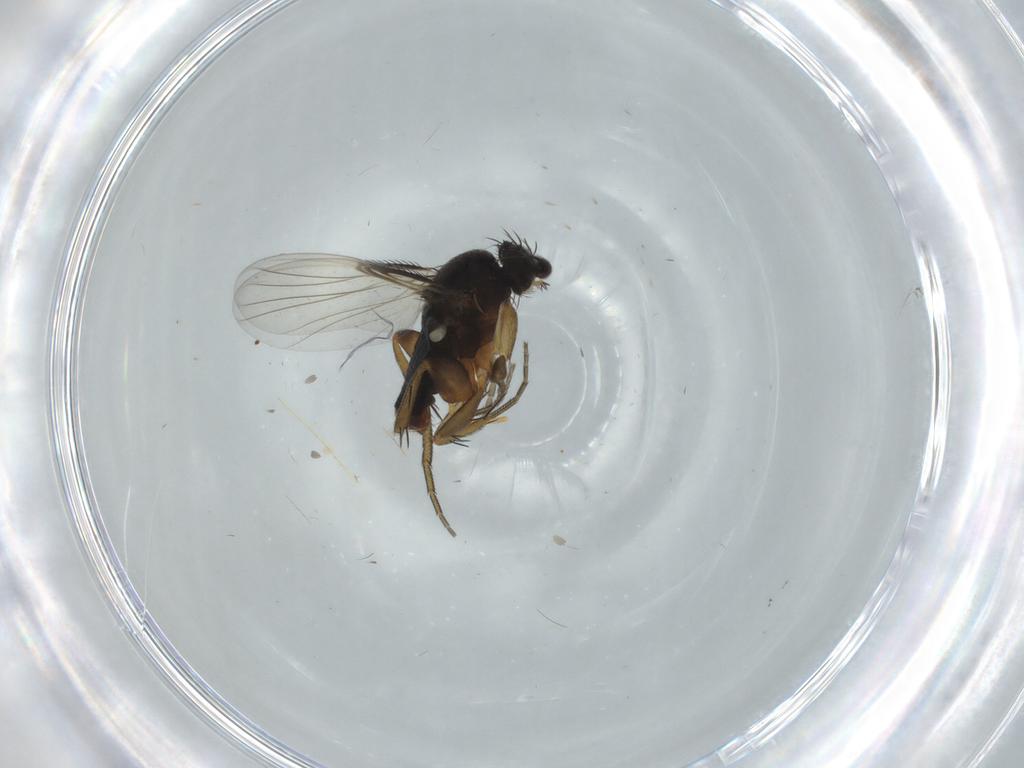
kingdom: Animalia
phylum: Arthropoda
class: Insecta
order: Diptera
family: Phoridae
